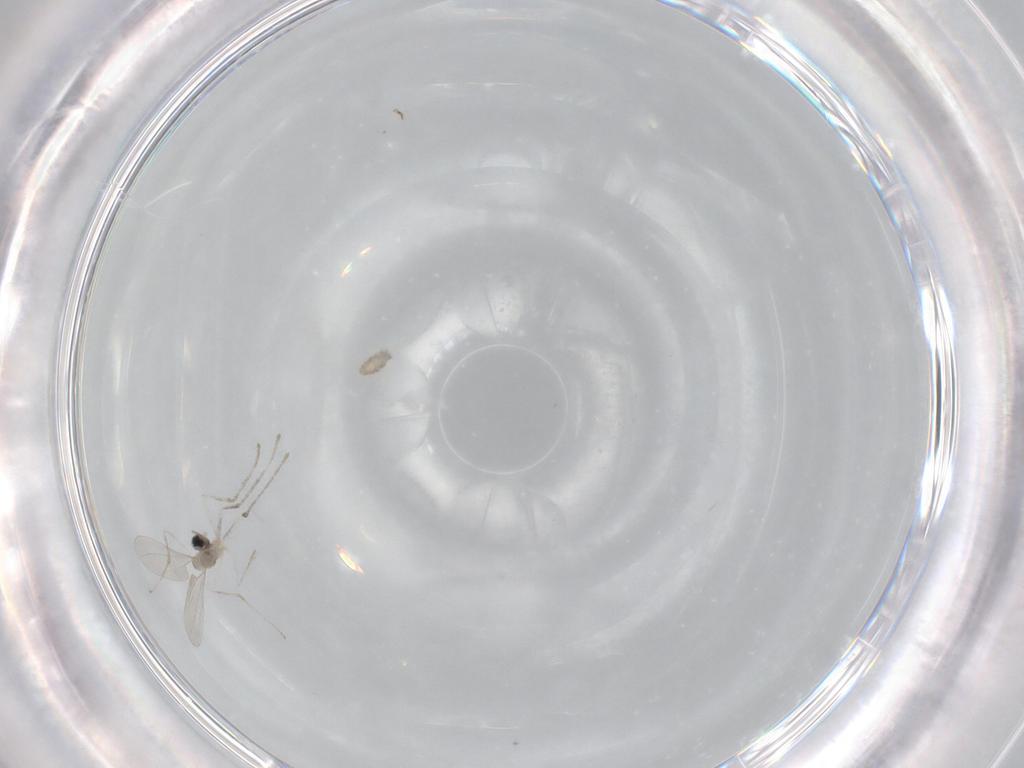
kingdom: Animalia
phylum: Arthropoda
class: Insecta
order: Diptera
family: Cecidomyiidae
